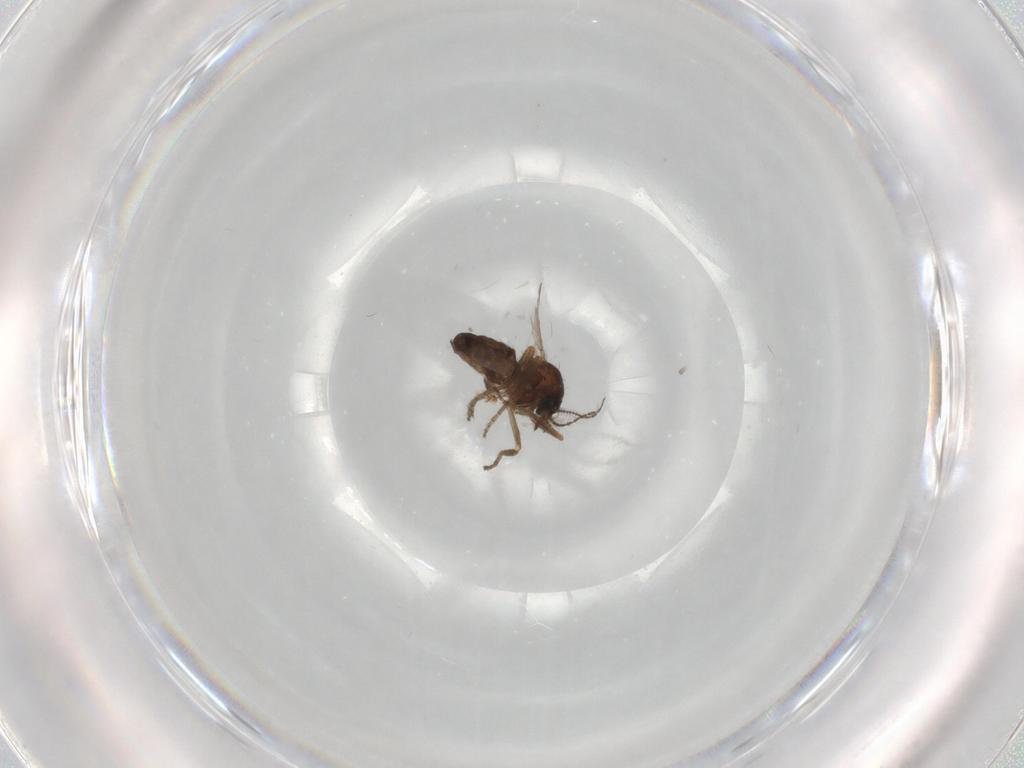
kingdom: Animalia
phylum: Arthropoda
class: Insecta
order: Diptera
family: Ceratopogonidae
